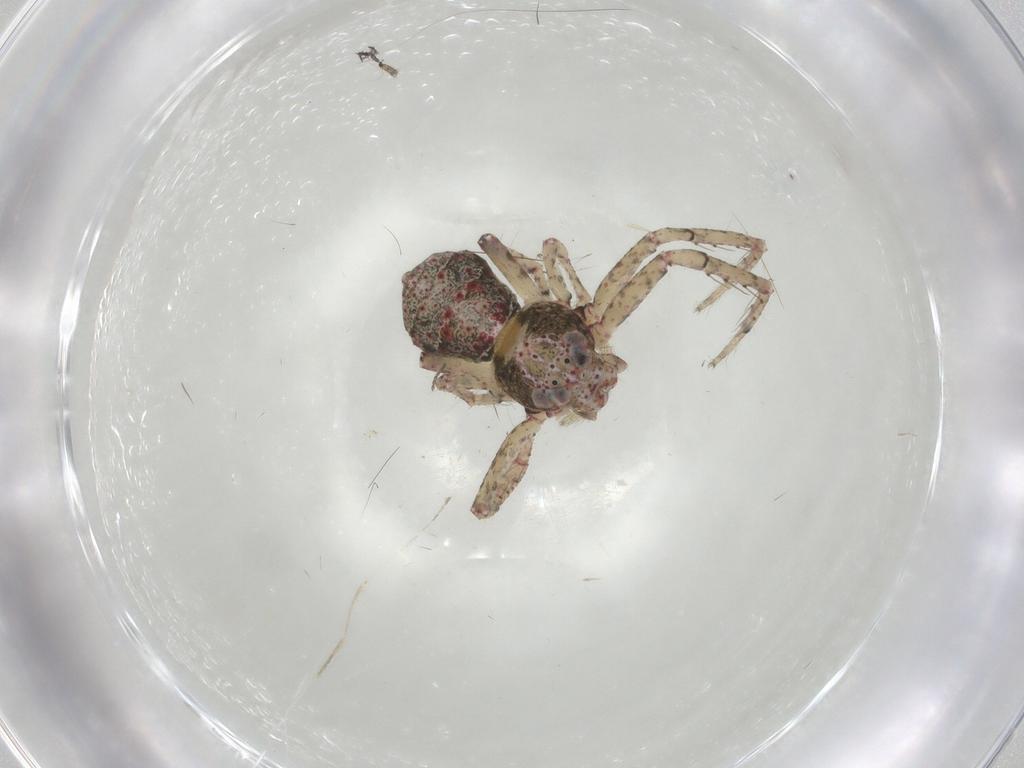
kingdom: Animalia
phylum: Arthropoda
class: Arachnida
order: Araneae
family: Thomisidae
